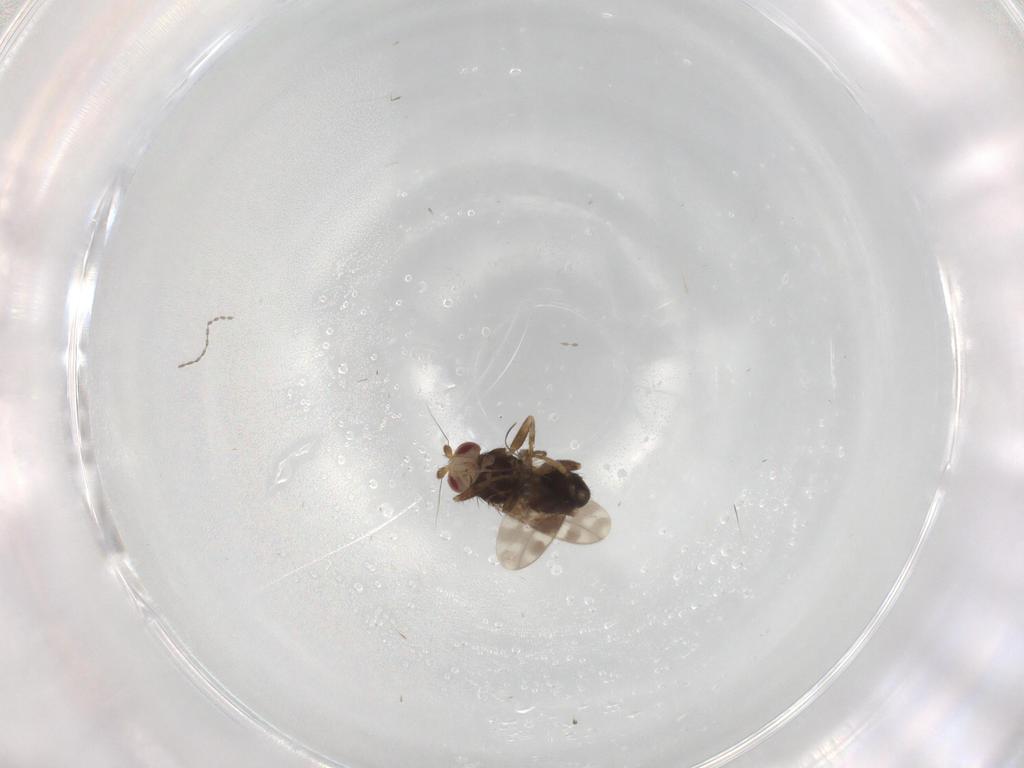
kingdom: Animalia
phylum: Arthropoda
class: Insecta
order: Diptera
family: Sphaeroceridae
